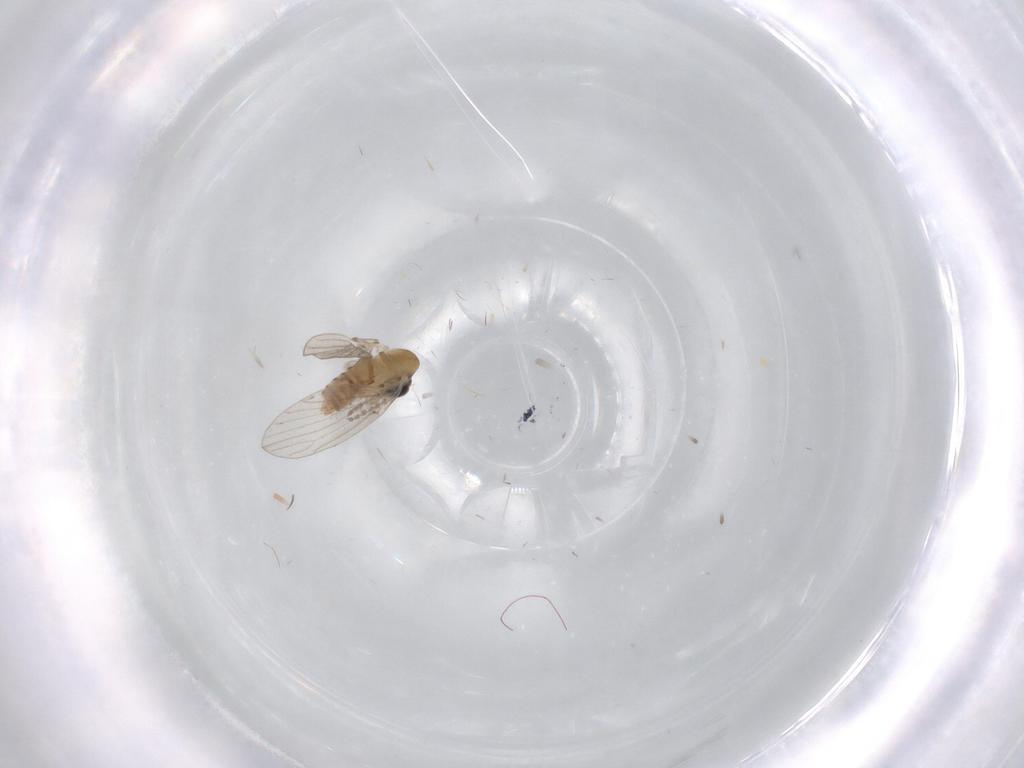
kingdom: Animalia
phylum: Arthropoda
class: Insecta
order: Diptera
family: Psychodidae
